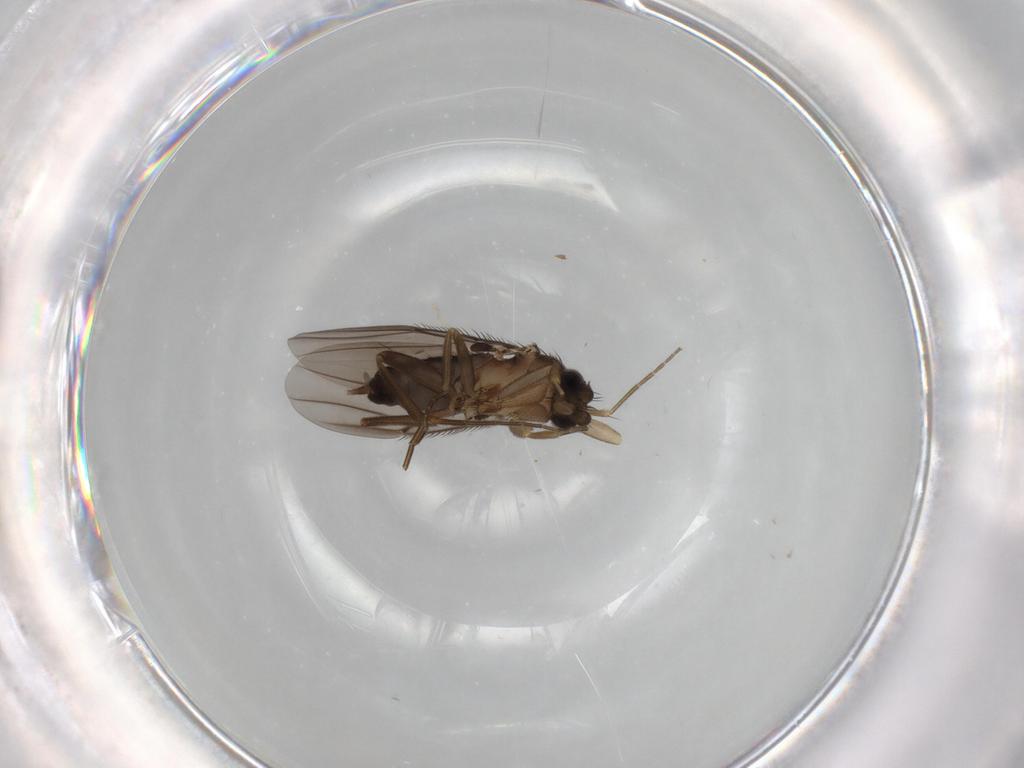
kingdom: Animalia
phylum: Arthropoda
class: Insecta
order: Diptera
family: Phoridae
